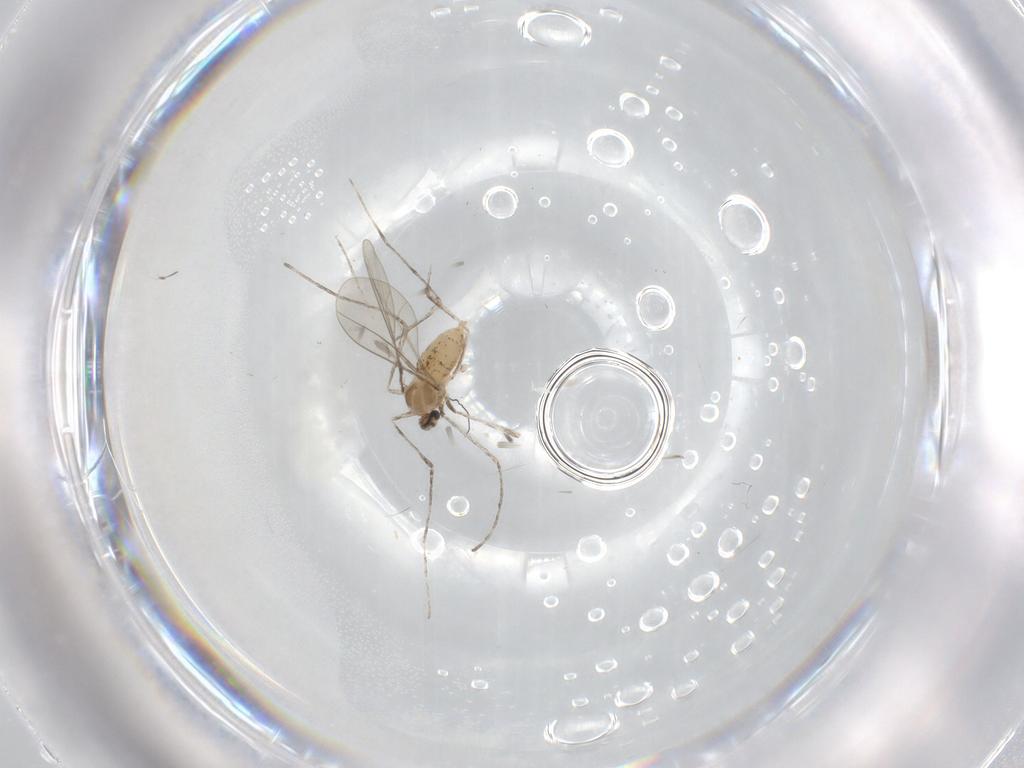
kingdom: Animalia
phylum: Arthropoda
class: Insecta
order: Diptera
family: Cecidomyiidae
